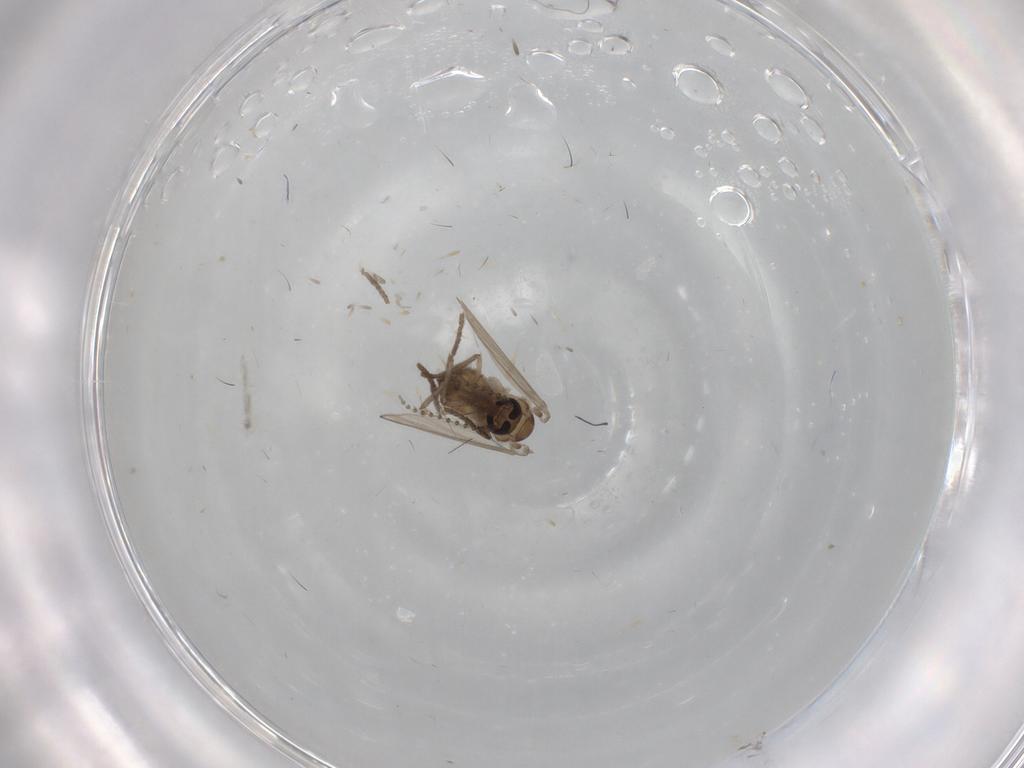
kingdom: Animalia
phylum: Arthropoda
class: Insecta
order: Diptera
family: Psychodidae
